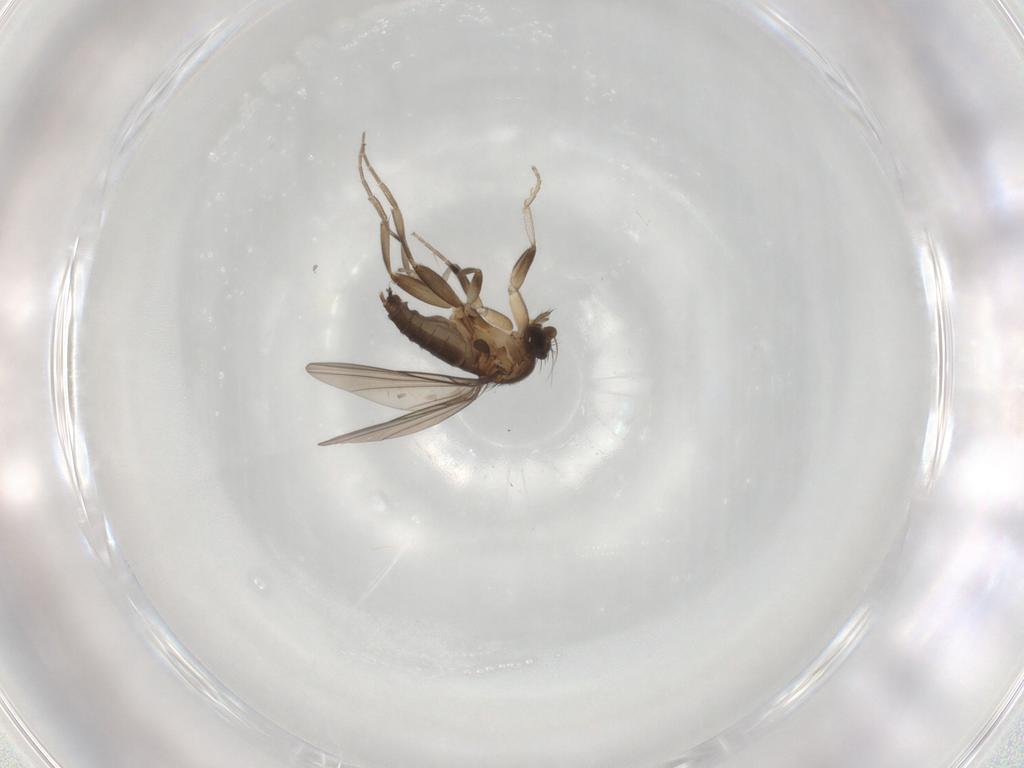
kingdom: Animalia
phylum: Arthropoda
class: Insecta
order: Diptera
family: Phoridae
